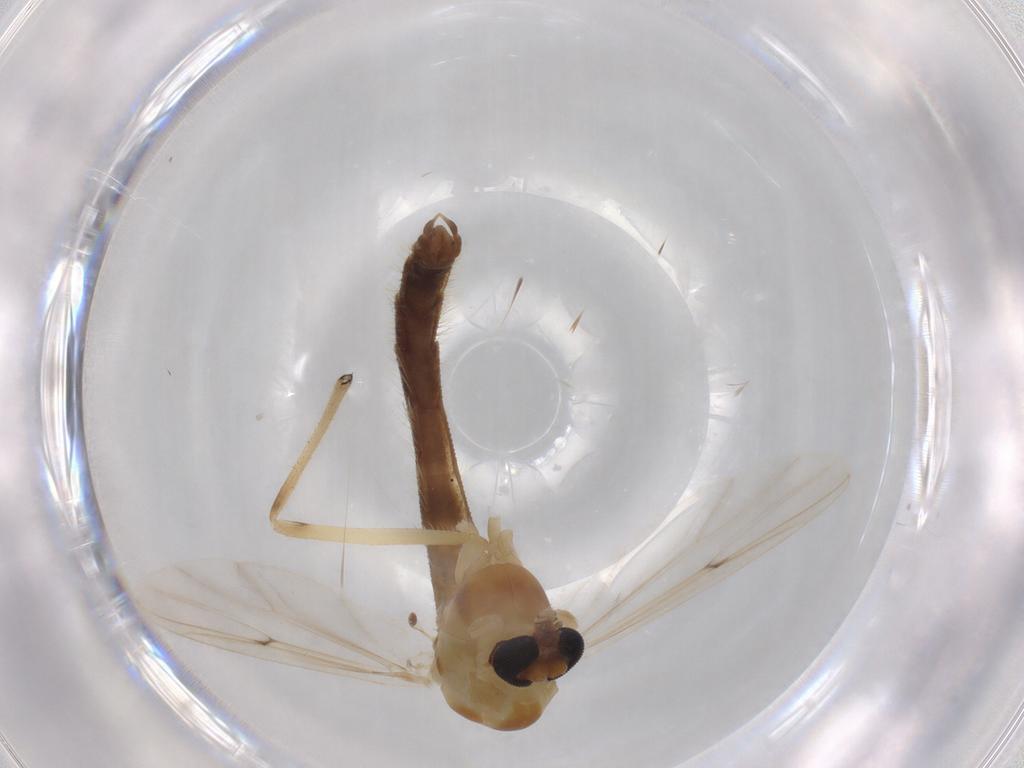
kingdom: Animalia
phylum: Arthropoda
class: Insecta
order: Diptera
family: Chironomidae
